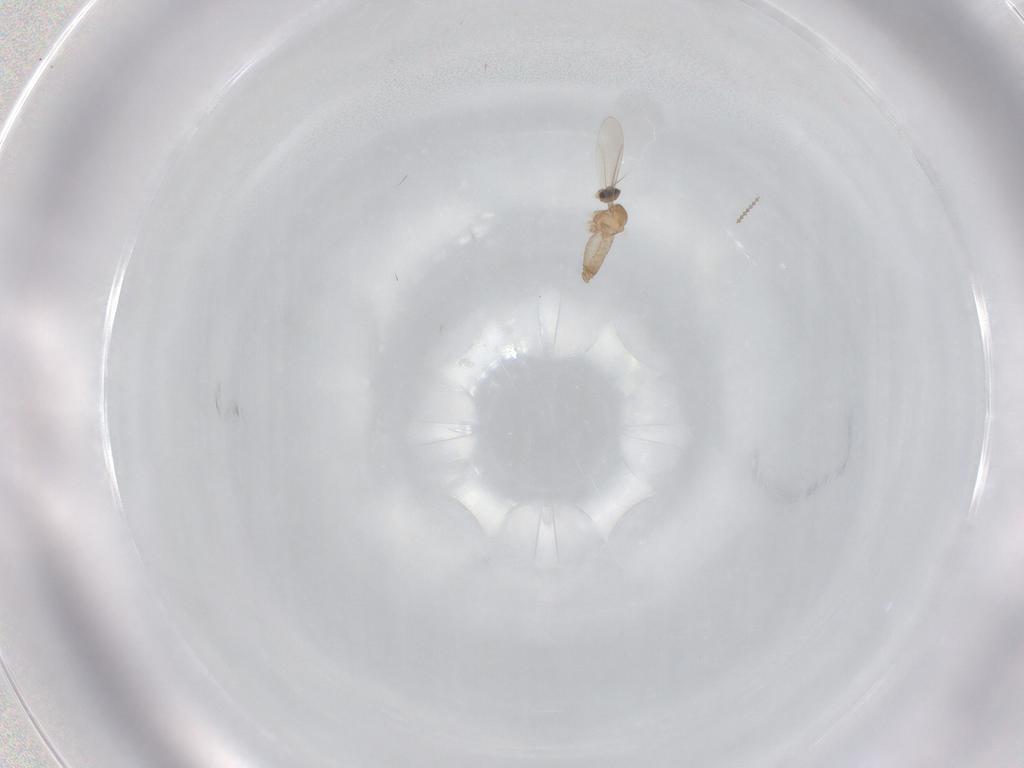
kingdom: Animalia
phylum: Arthropoda
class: Insecta
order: Diptera
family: Cecidomyiidae
